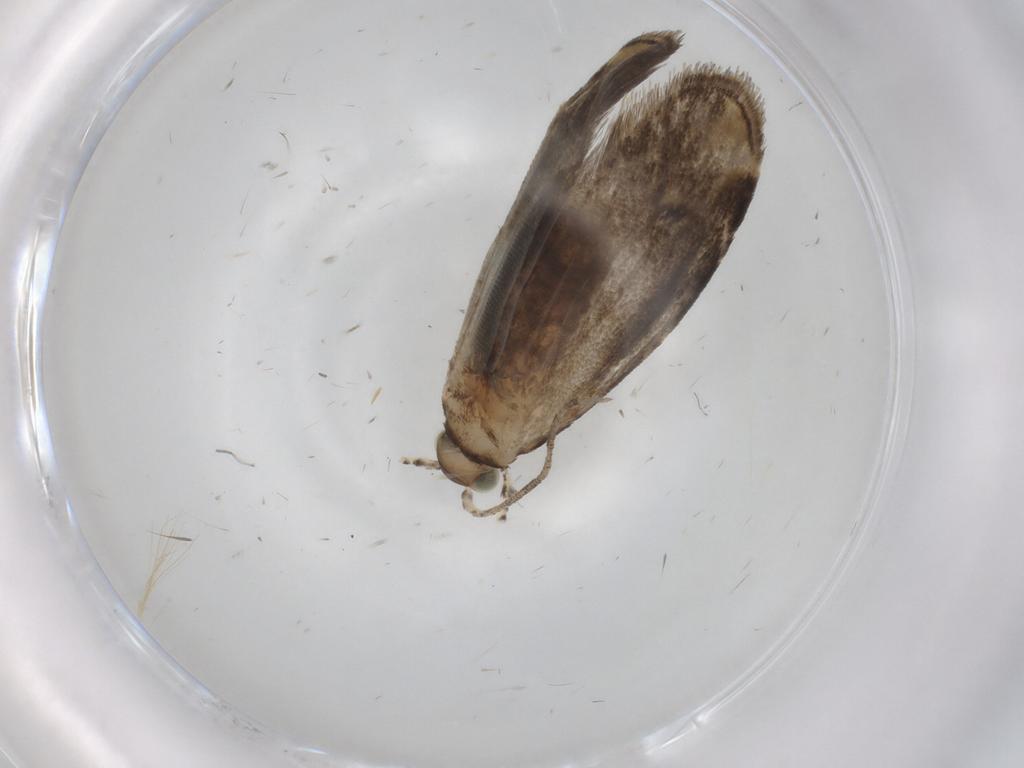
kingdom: Animalia
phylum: Arthropoda
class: Insecta
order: Lepidoptera
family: Tineidae
